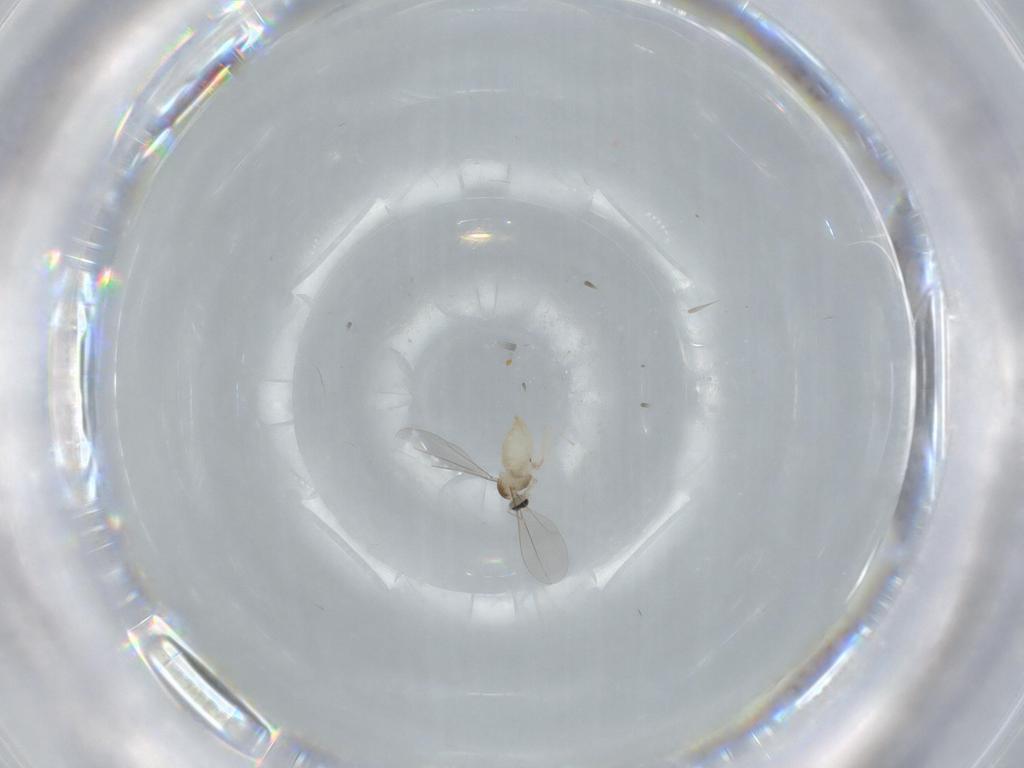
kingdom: Animalia
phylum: Arthropoda
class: Insecta
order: Diptera
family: Cecidomyiidae
